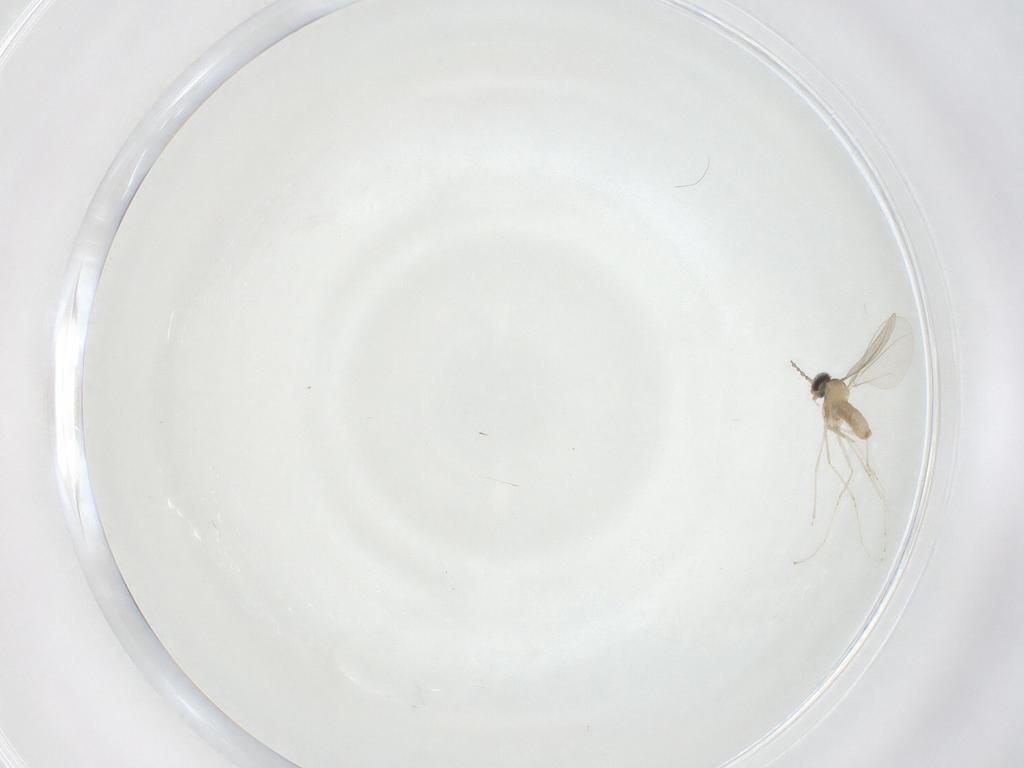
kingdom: Animalia
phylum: Arthropoda
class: Insecta
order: Diptera
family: Cecidomyiidae
